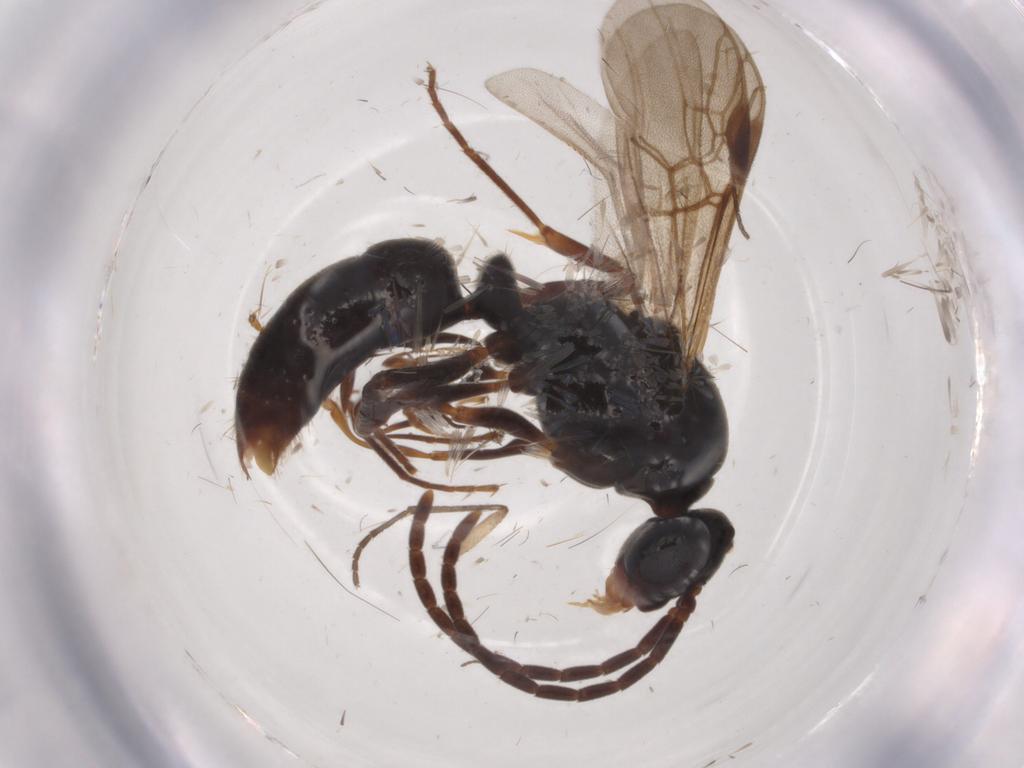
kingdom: Animalia
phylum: Arthropoda
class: Insecta
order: Hymenoptera
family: Formicidae
